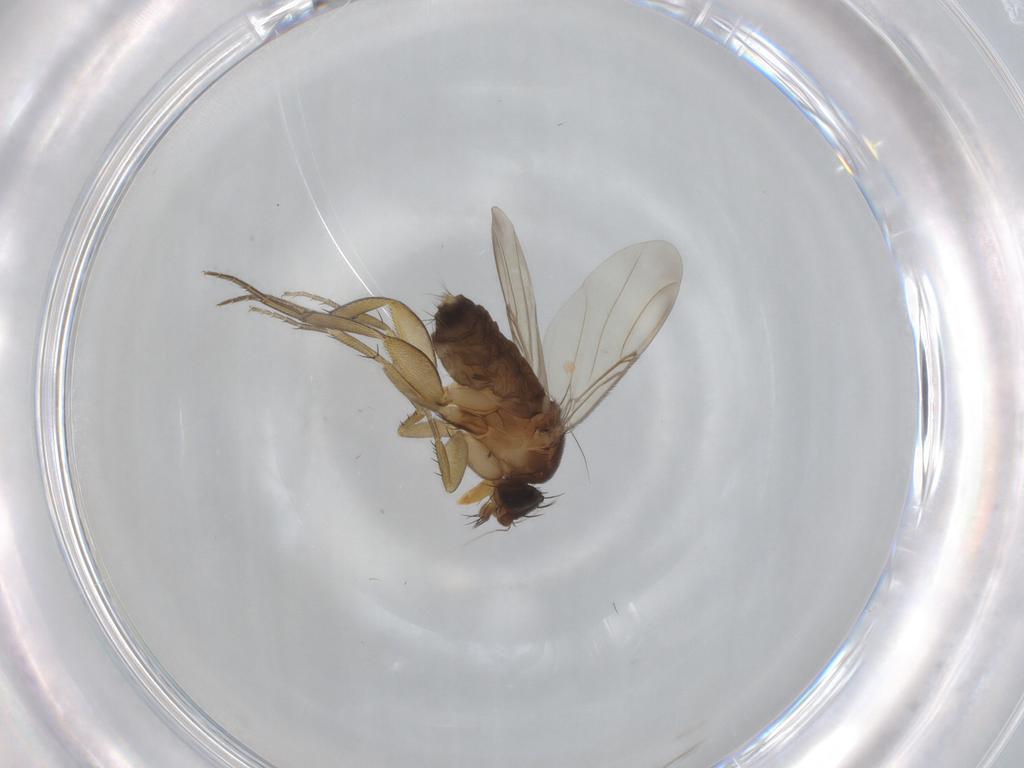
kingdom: Animalia
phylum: Arthropoda
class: Insecta
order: Diptera
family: Phoridae
